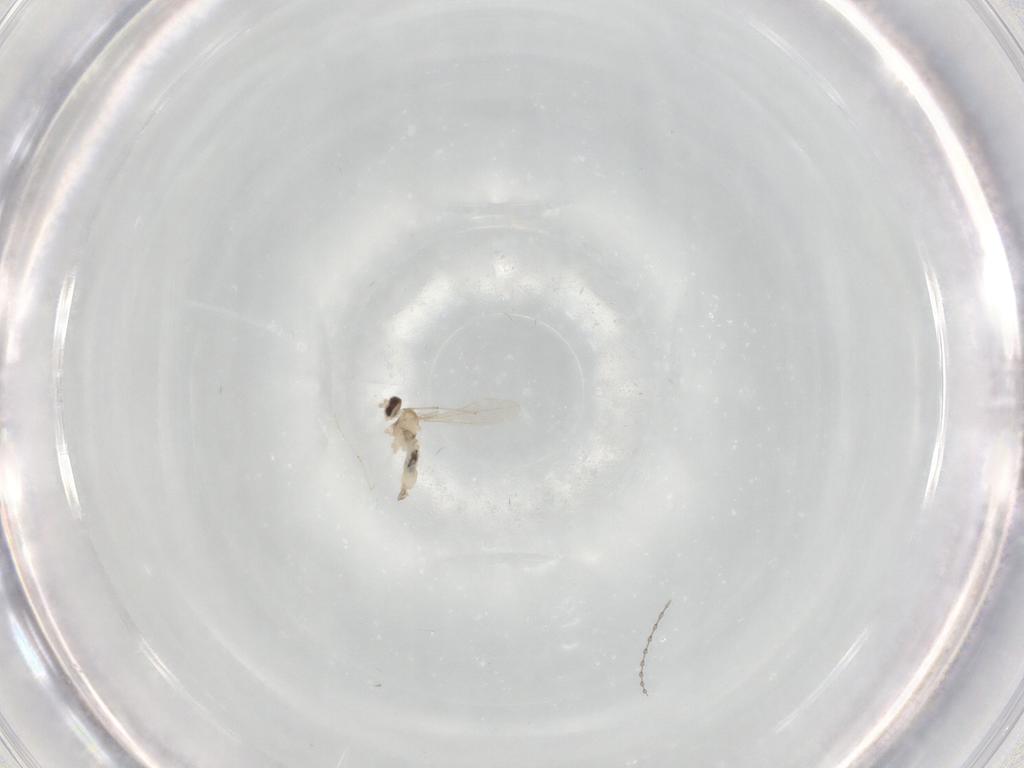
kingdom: Animalia
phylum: Arthropoda
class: Insecta
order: Diptera
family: Cecidomyiidae
